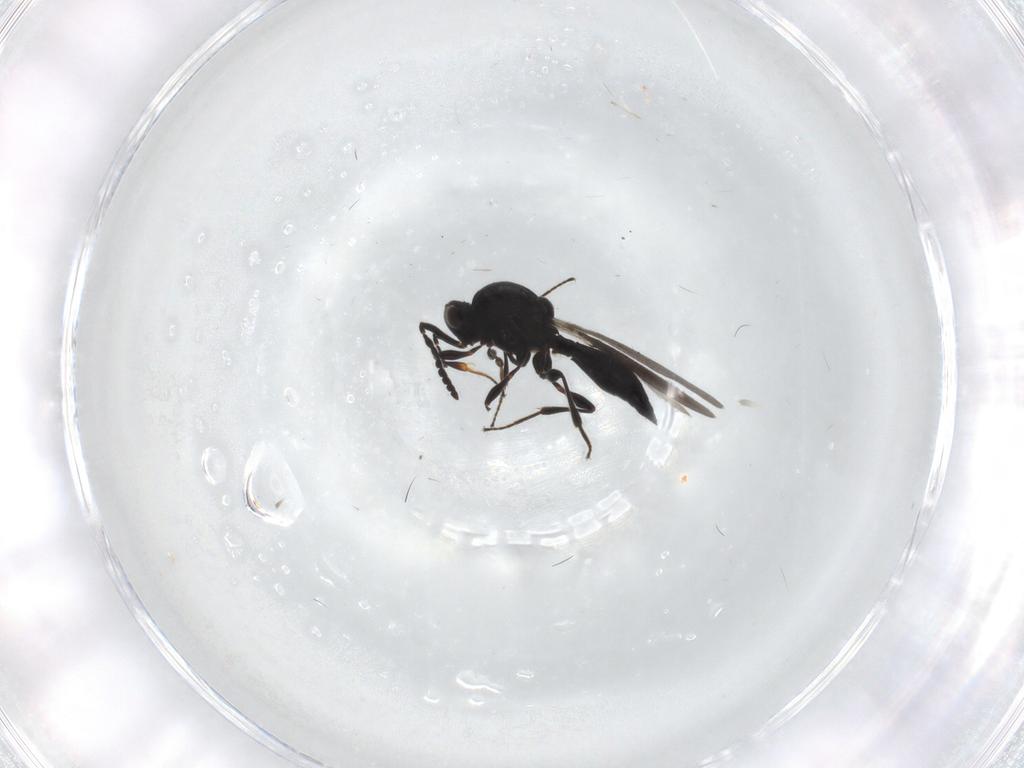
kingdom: Animalia
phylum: Arthropoda
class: Insecta
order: Hymenoptera
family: Platygastridae
